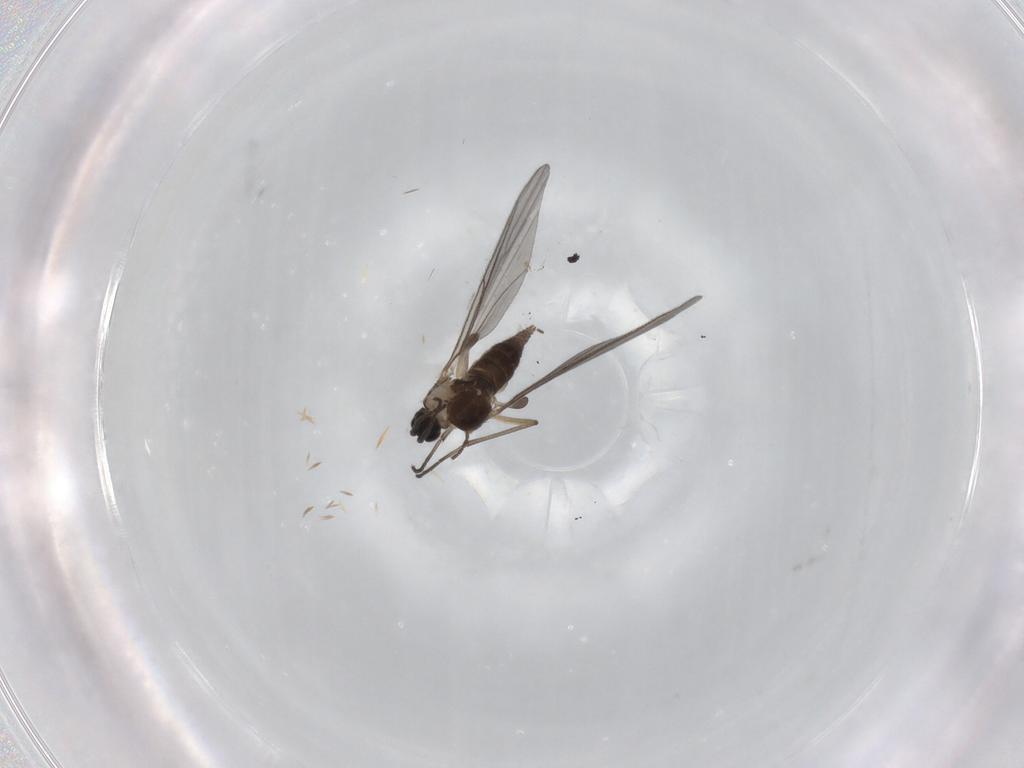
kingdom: Animalia
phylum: Arthropoda
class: Insecta
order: Diptera
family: Sciaridae
